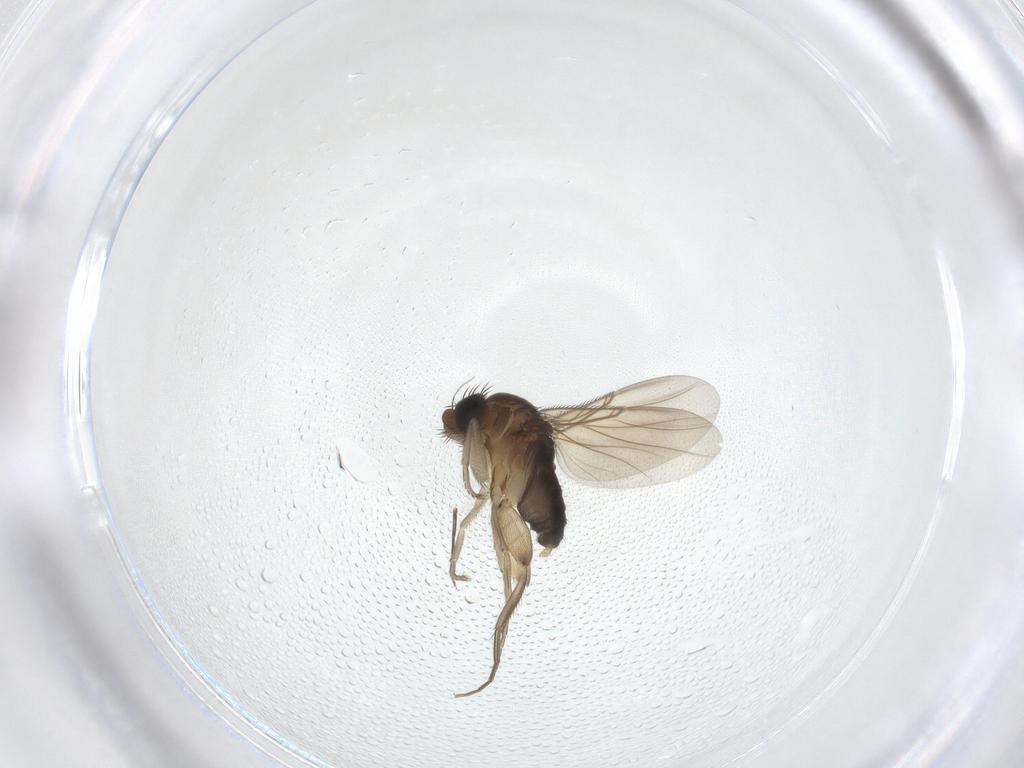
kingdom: Animalia
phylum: Arthropoda
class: Insecta
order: Diptera
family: Phoridae
